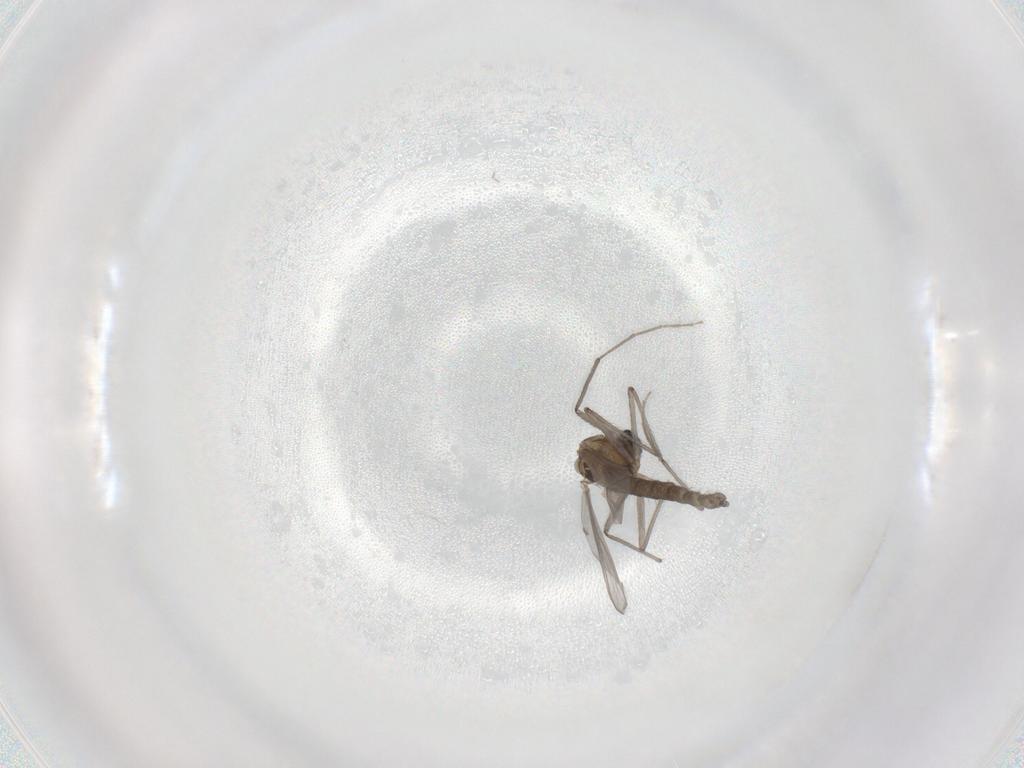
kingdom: Animalia
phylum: Arthropoda
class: Insecta
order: Diptera
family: Chironomidae
